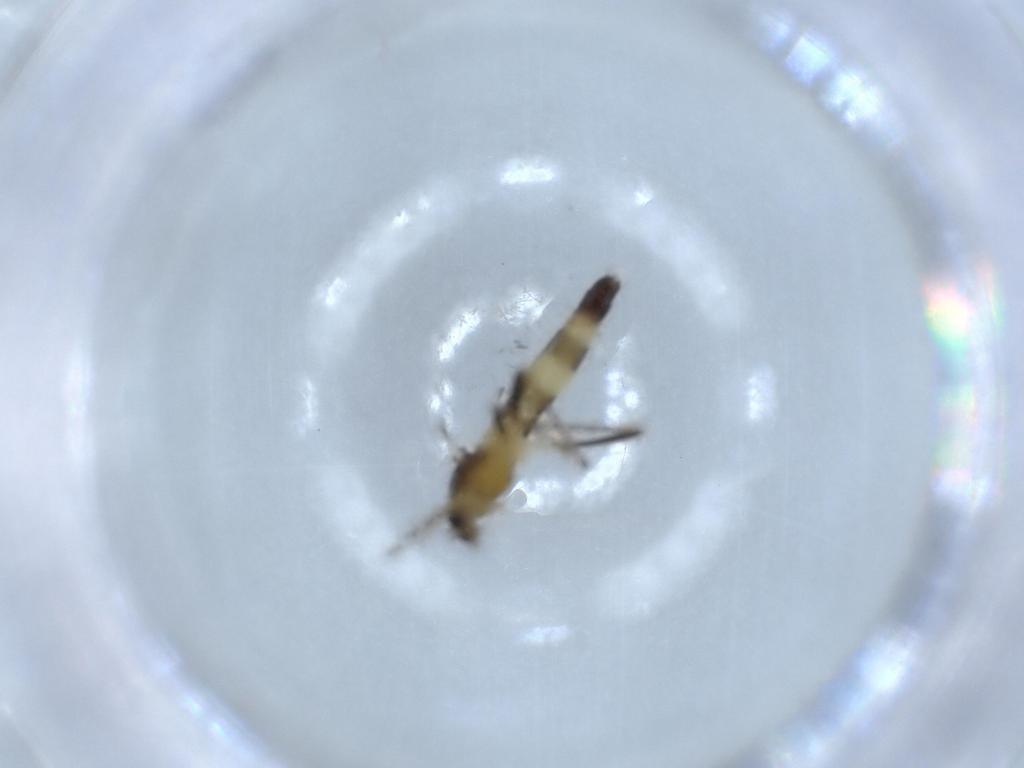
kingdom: Animalia
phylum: Arthropoda
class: Insecta
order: Diptera
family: Chironomidae
